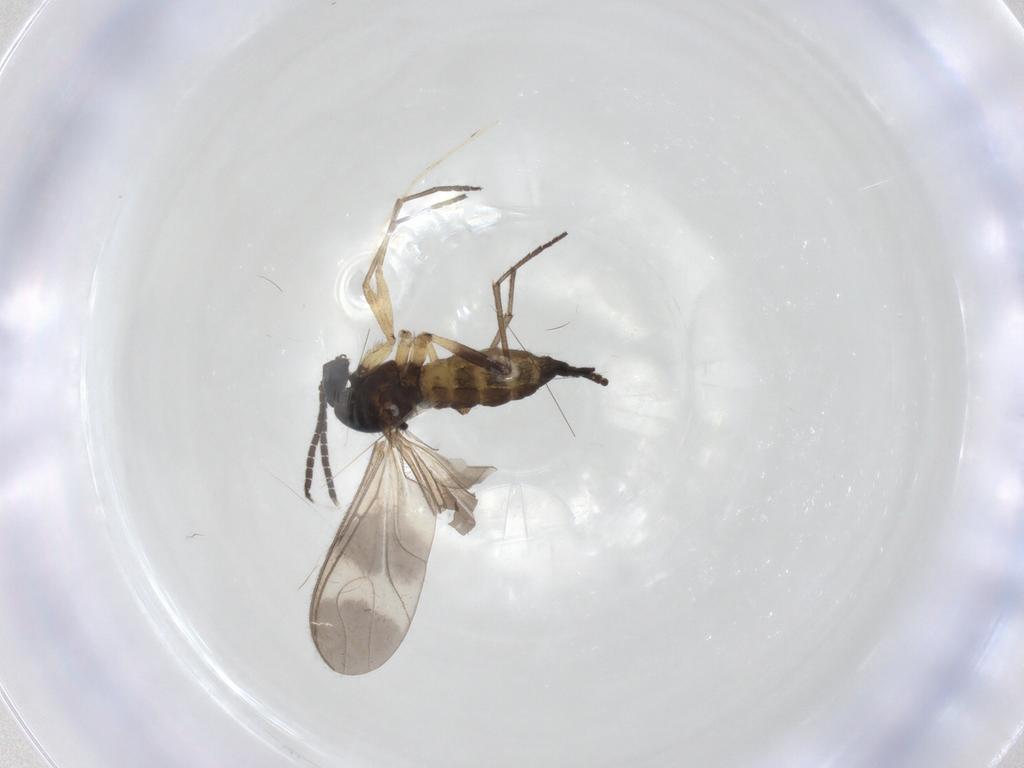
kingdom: Animalia
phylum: Arthropoda
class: Insecta
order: Diptera
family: Sciaridae
